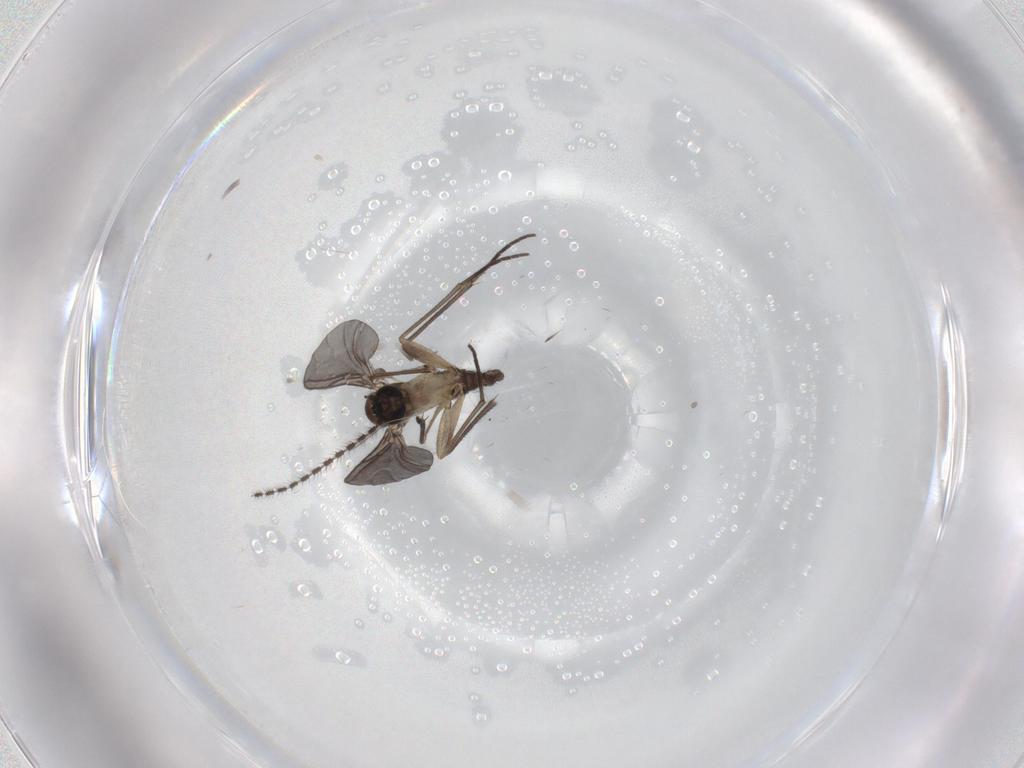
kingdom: Animalia
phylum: Arthropoda
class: Insecta
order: Diptera
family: Sciaridae
